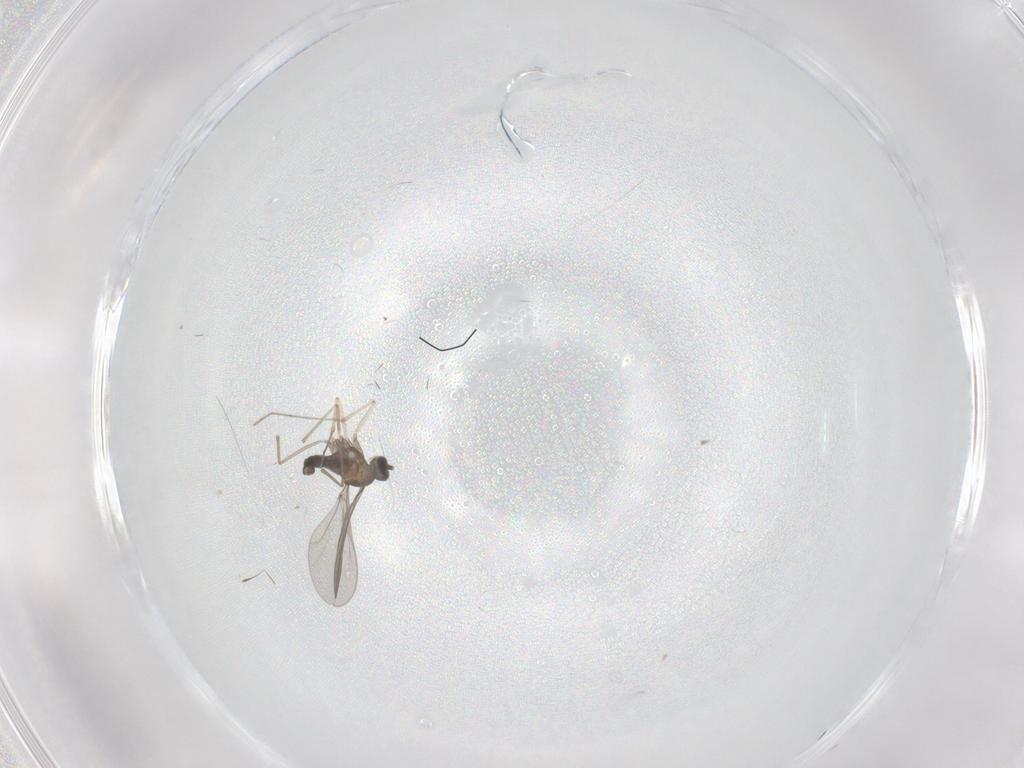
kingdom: Animalia
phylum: Arthropoda
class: Insecta
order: Diptera
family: Cecidomyiidae
